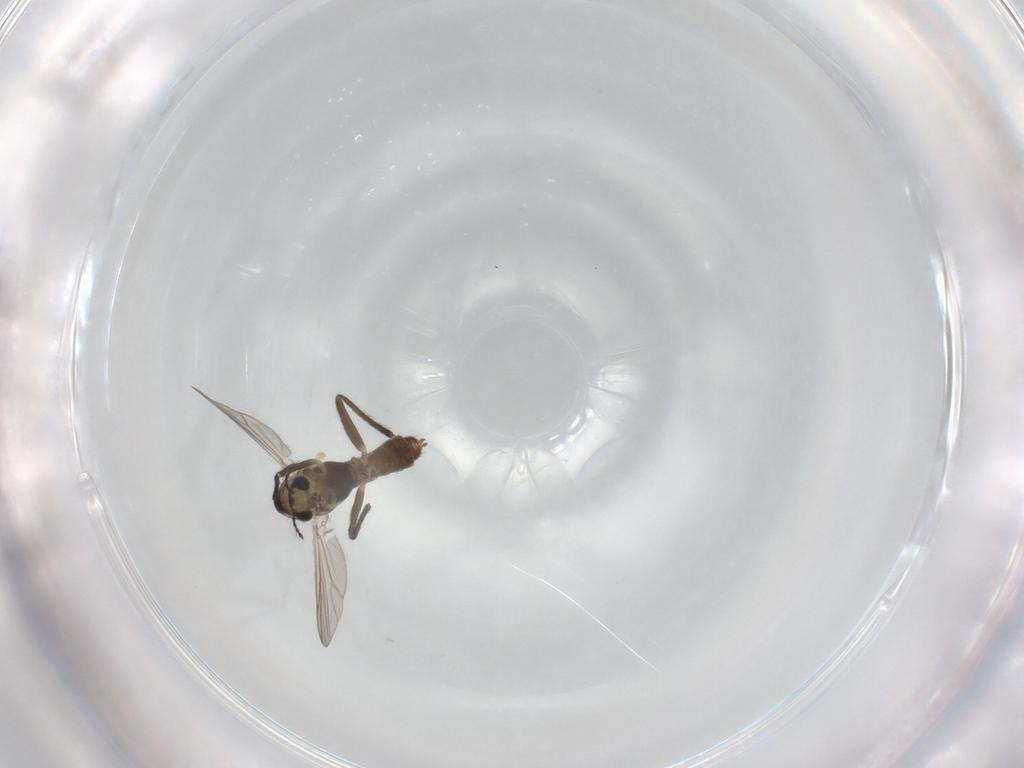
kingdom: Animalia
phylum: Arthropoda
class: Insecta
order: Diptera
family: Chironomidae
